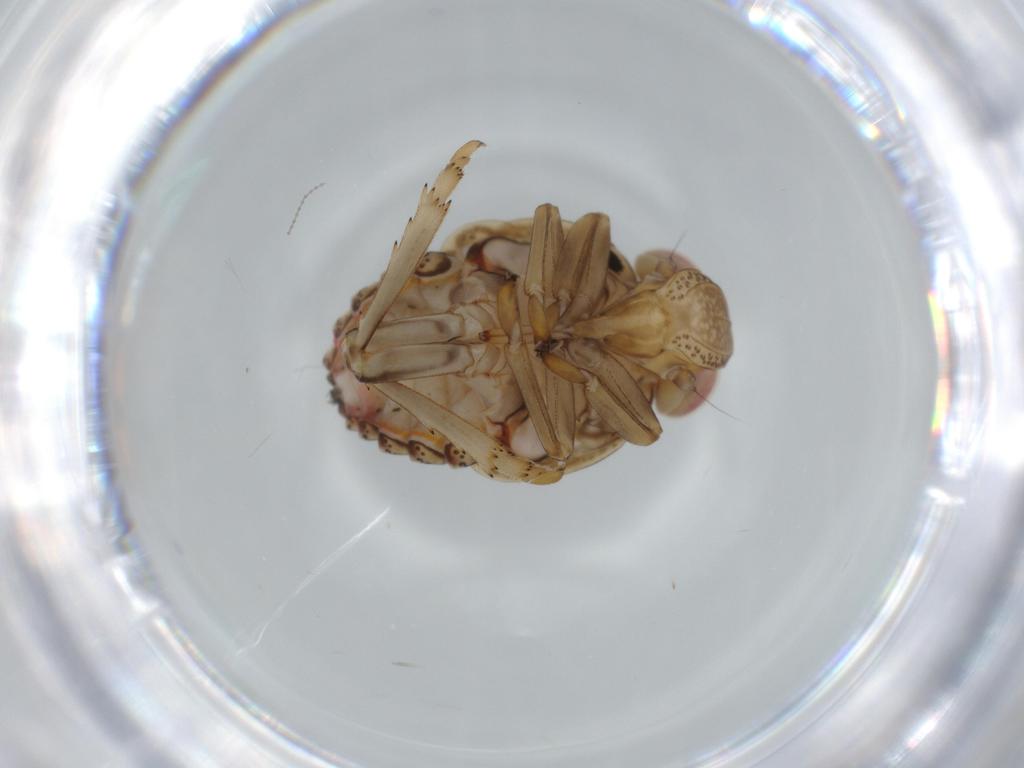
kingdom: Animalia
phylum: Arthropoda
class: Insecta
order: Hemiptera
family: Issidae
